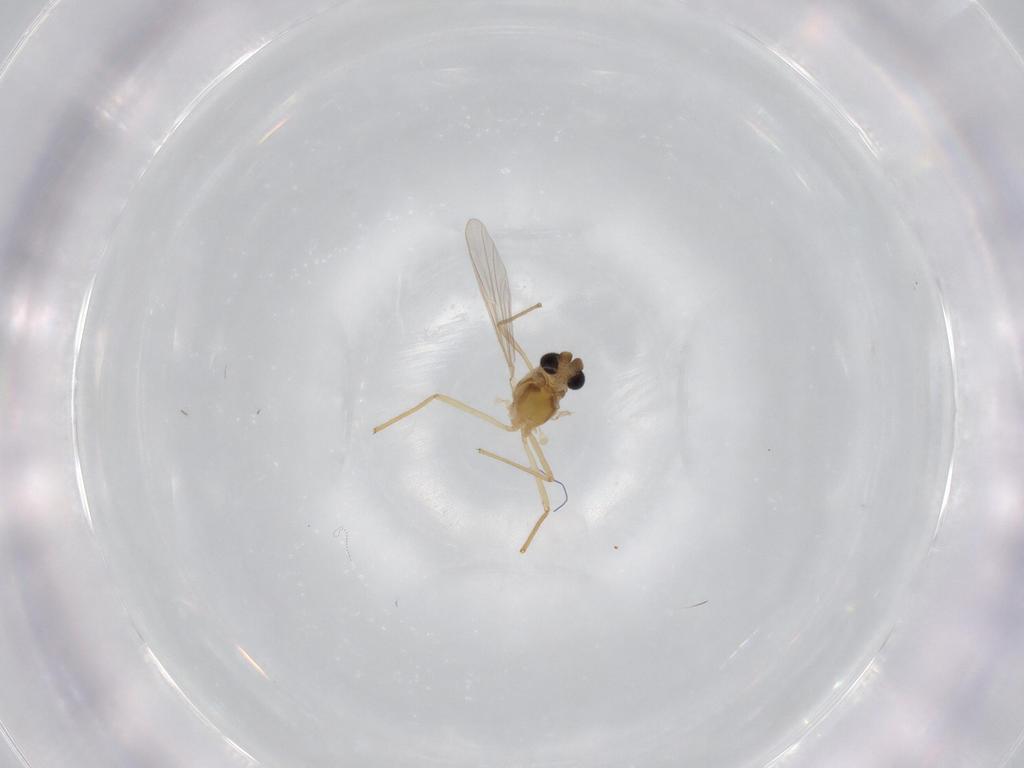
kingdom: Animalia
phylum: Arthropoda
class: Insecta
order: Diptera
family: Chironomidae
